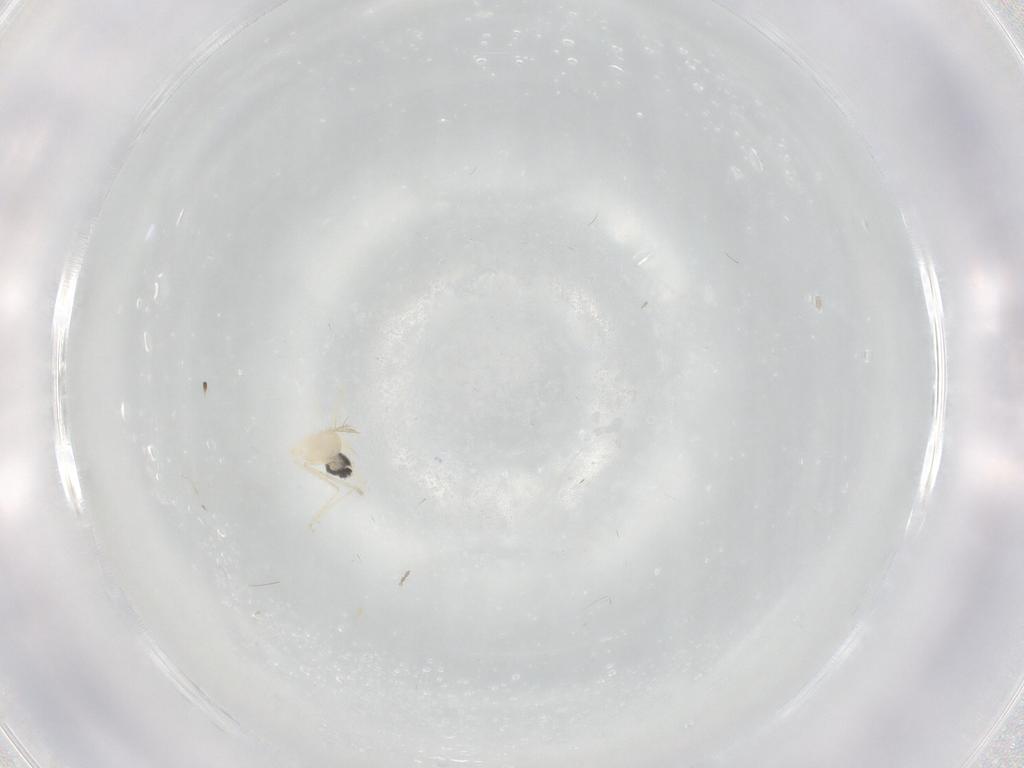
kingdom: Animalia
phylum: Arthropoda
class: Insecta
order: Diptera
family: Cecidomyiidae
